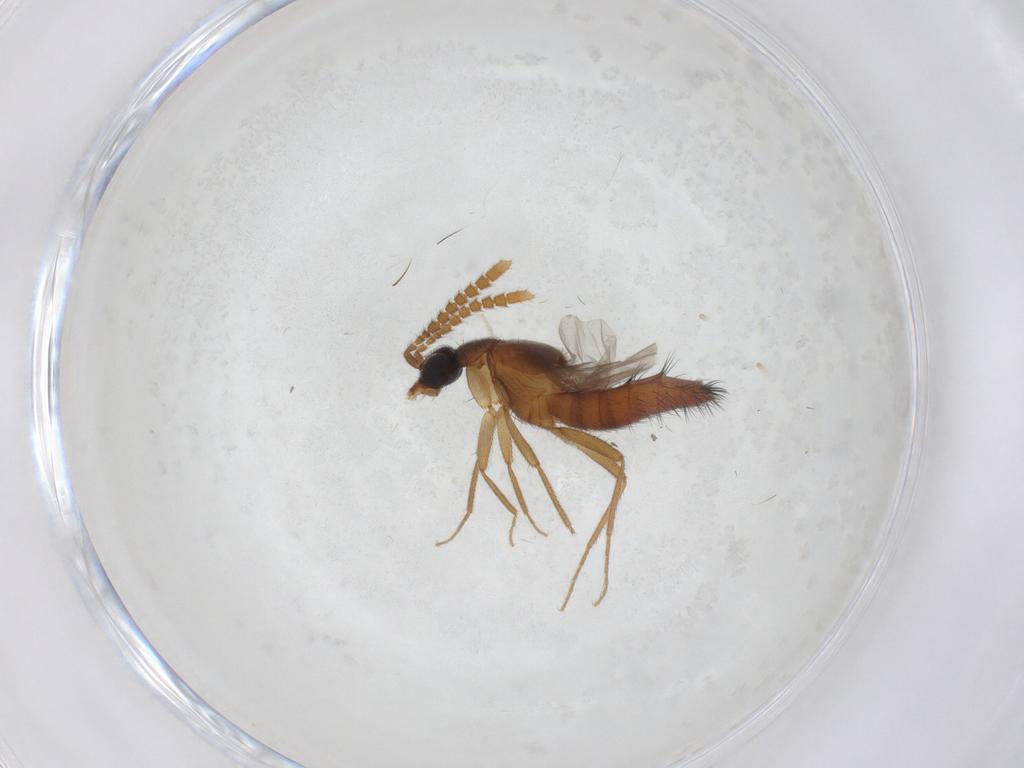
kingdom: Animalia
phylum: Arthropoda
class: Insecta
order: Coleoptera
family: Staphylinidae
